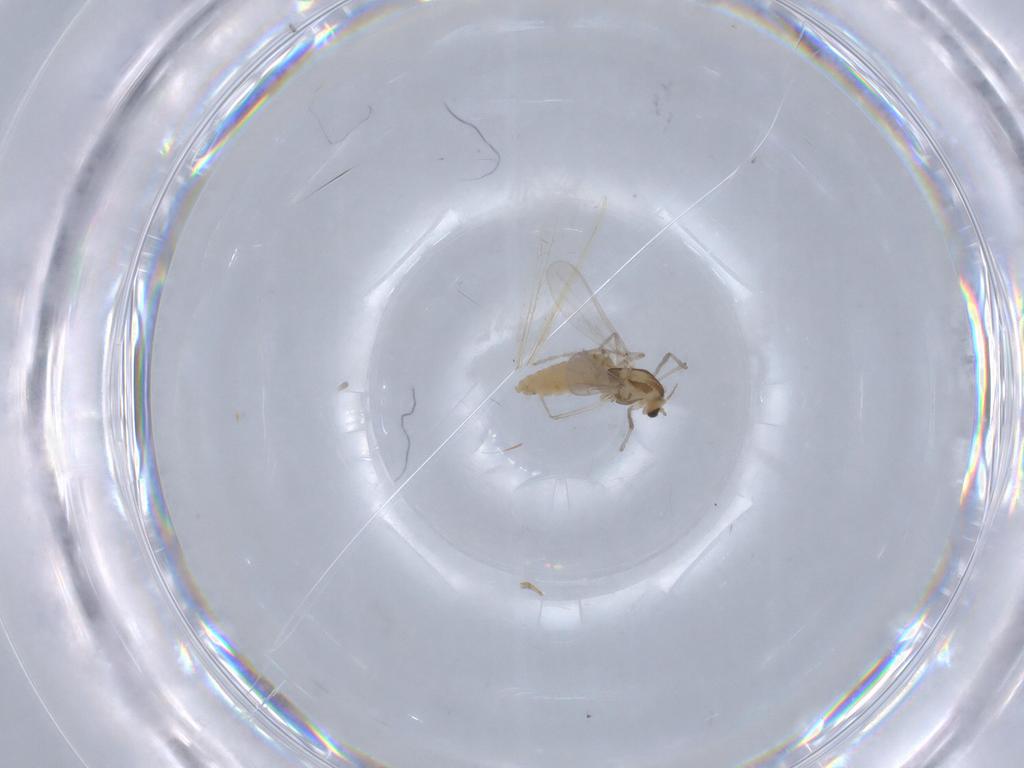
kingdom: Animalia
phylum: Arthropoda
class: Insecta
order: Diptera
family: Chironomidae
